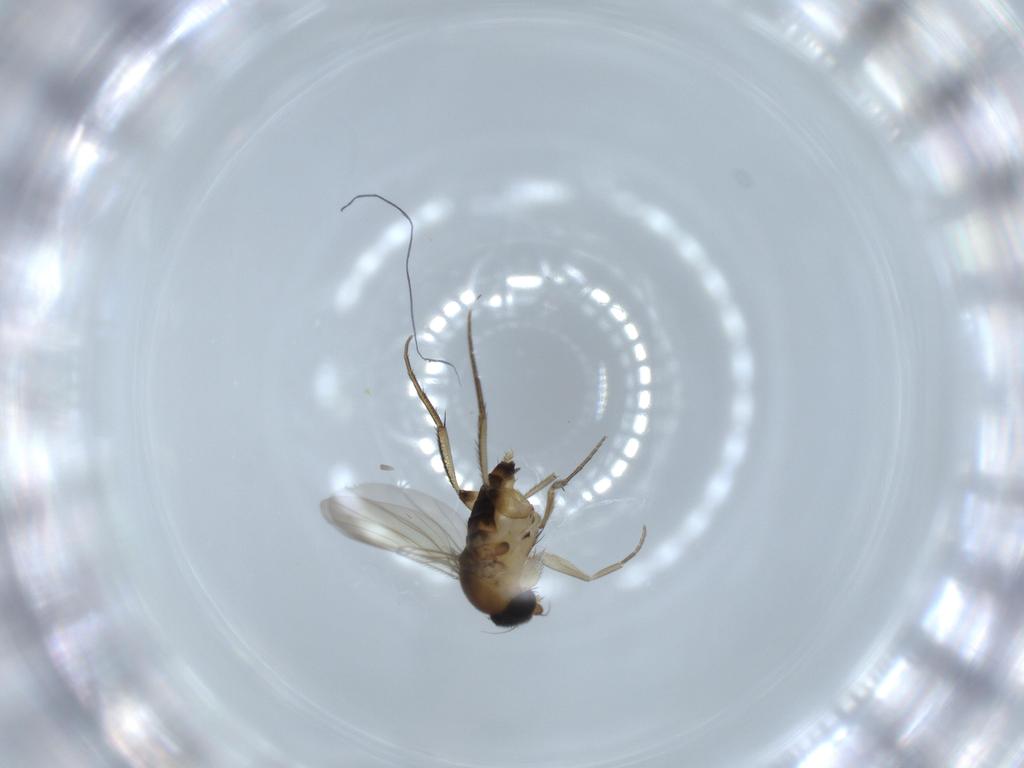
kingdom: Animalia
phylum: Arthropoda
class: Insecta
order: Diptera
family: Phoridae
